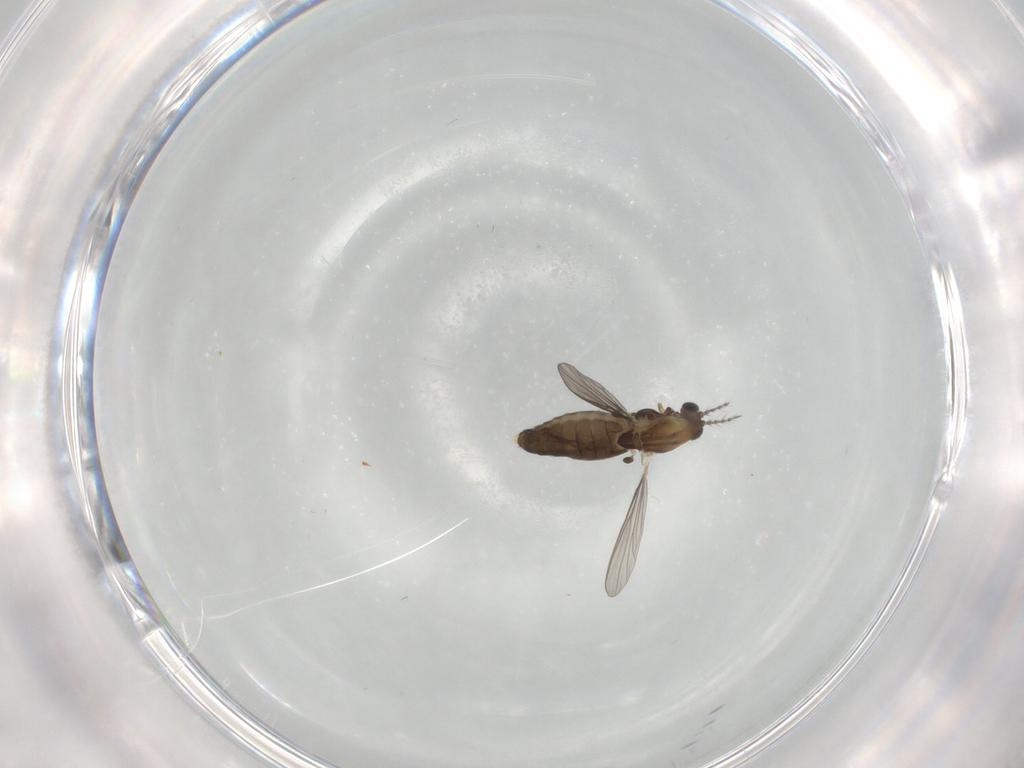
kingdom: Animalia
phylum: Arthropoda
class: Insecta
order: Diptera
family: Chironomidae
